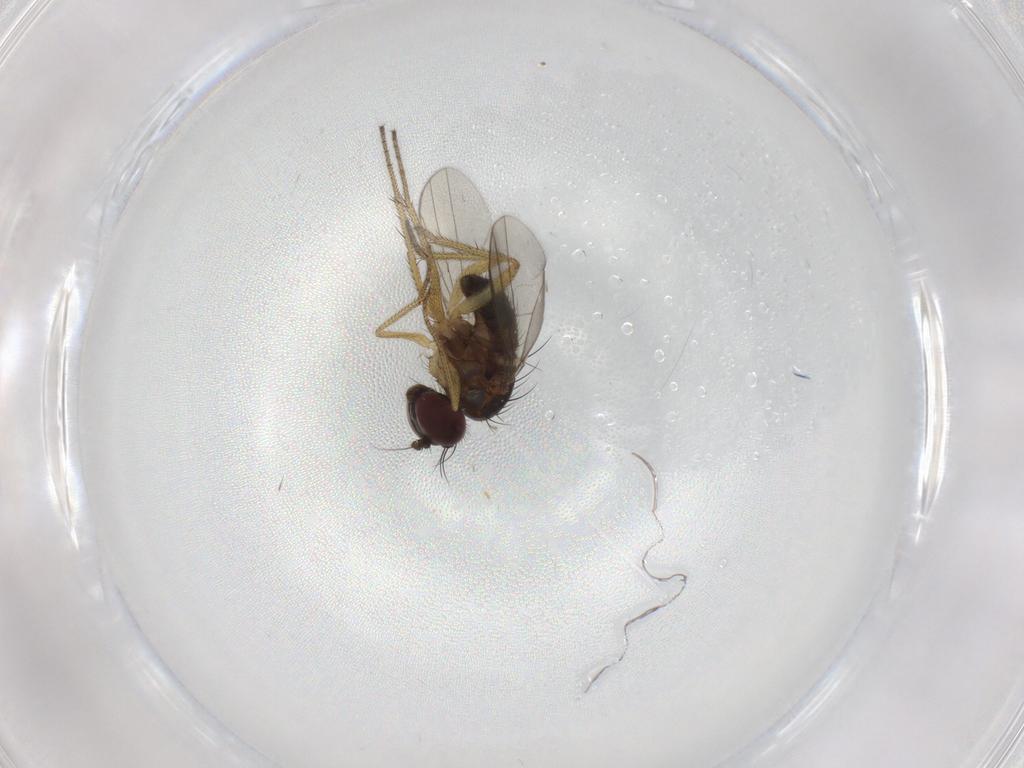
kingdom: Animalia
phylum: Arthropoda
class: Insecta
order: Diptera
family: Dolichopodidae
